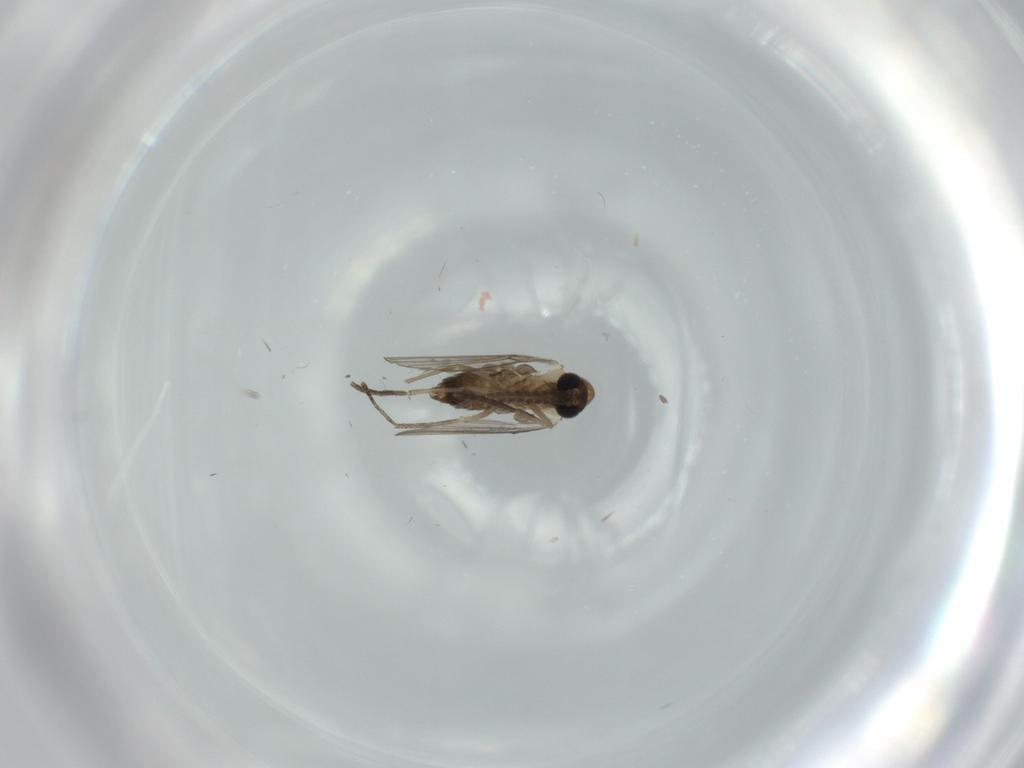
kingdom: Animalia
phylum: Arthropoda
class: Insecta
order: Diptera
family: Psychodidae
